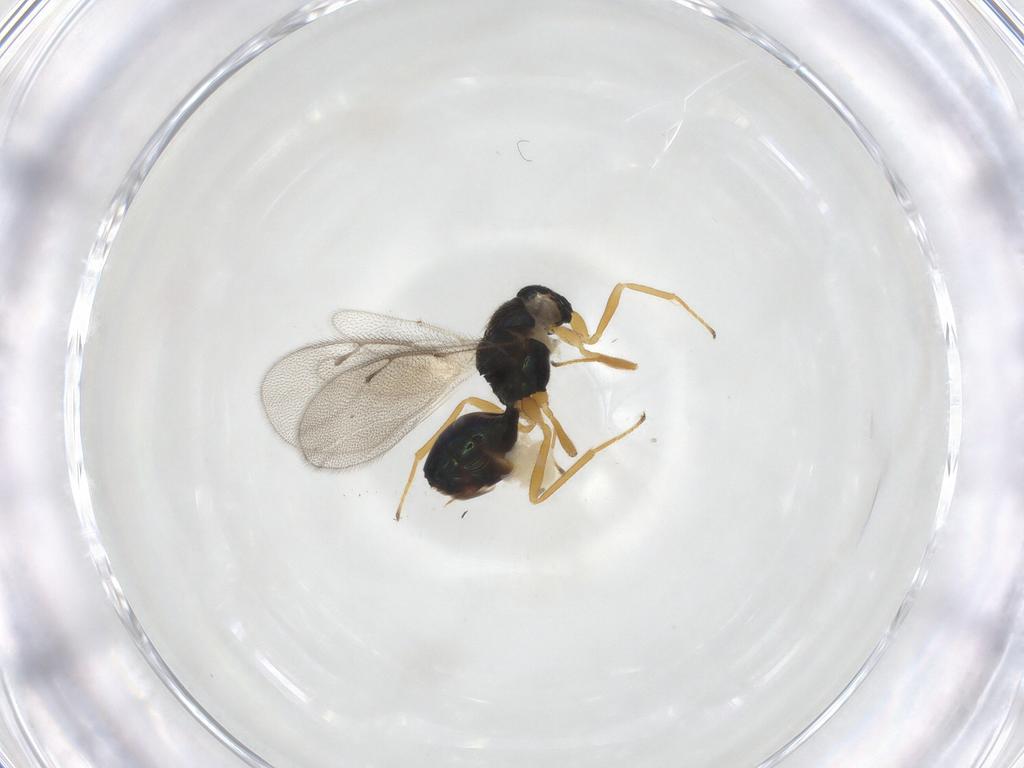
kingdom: Animalia
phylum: Arthropoda
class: Insecta
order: Hymenoptera
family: Pteromalidae
